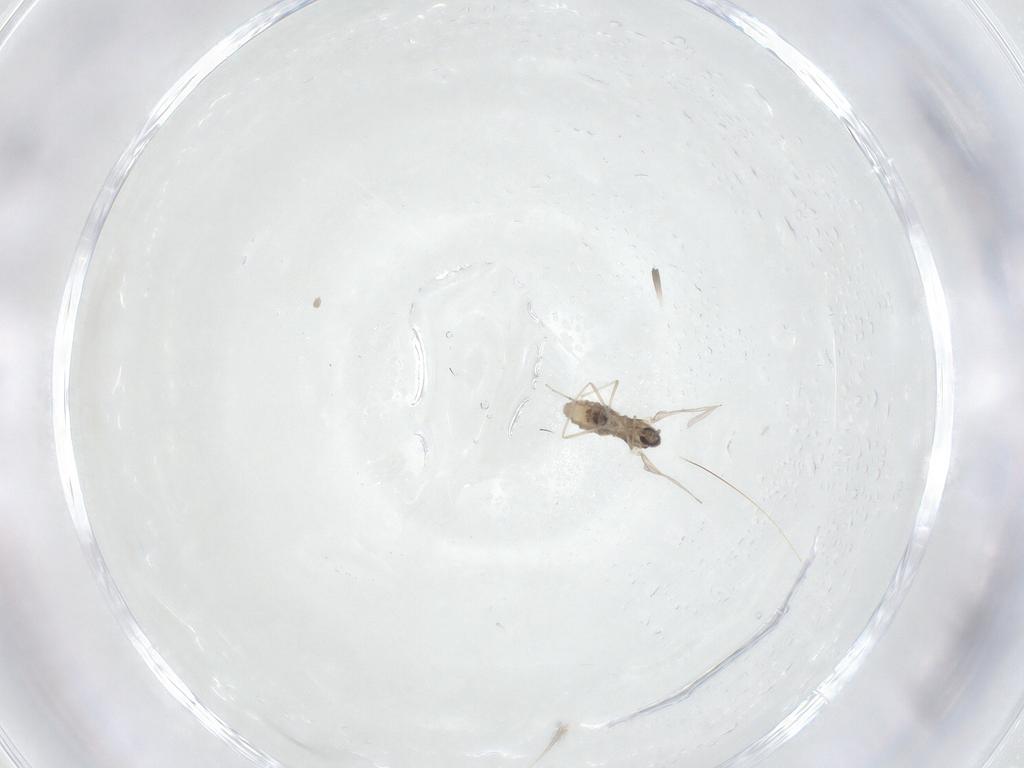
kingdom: Animalia
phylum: Arthropoda
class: Insecta
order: Diptera
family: Cecidomyiidae
